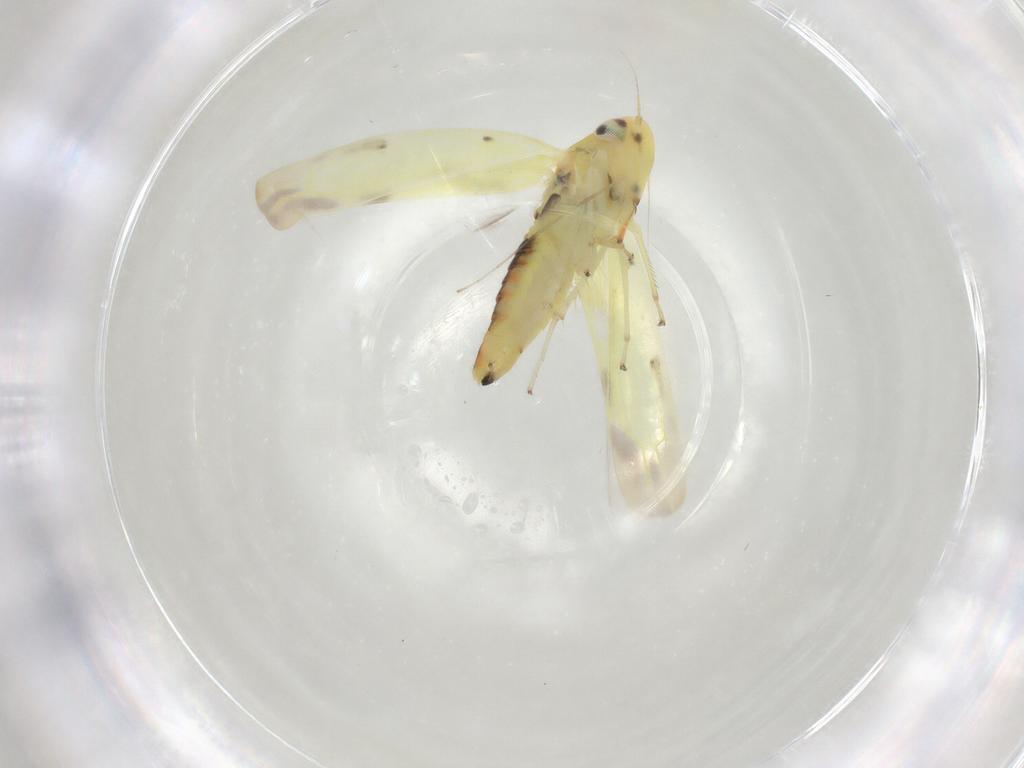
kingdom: Animalia
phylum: Arthropoda
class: Insecta
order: Hemiptera
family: Cicadellidae
